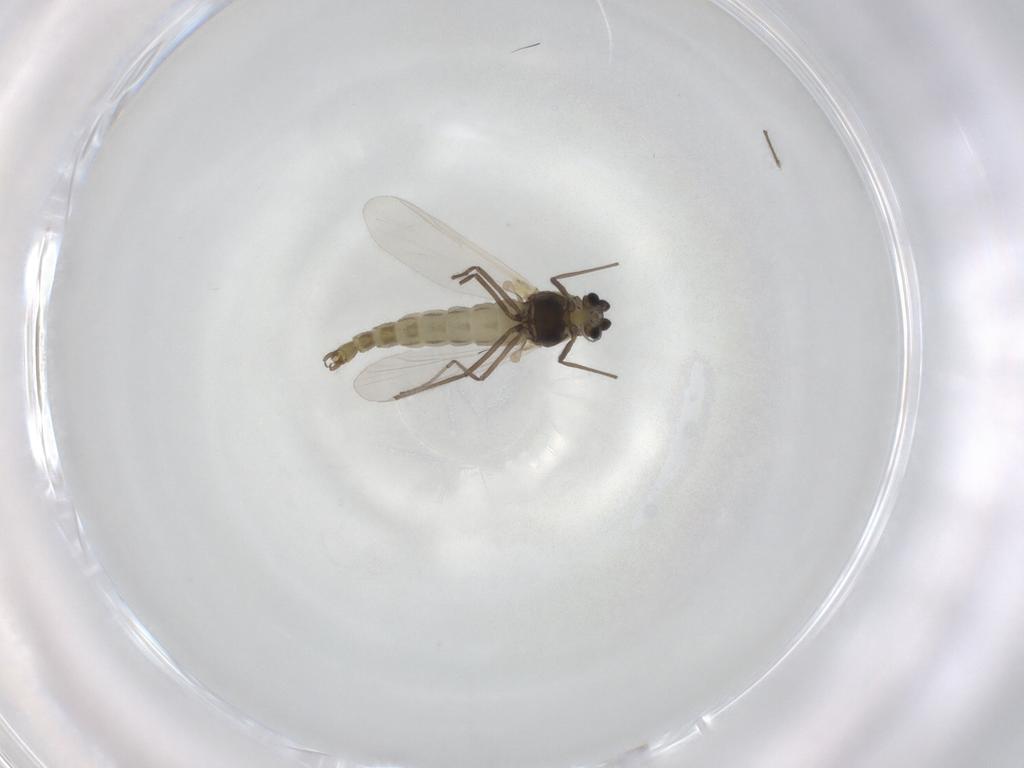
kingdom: Animalia
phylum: Arthropoda
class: Insecta
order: Diptera
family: Chironomidae
